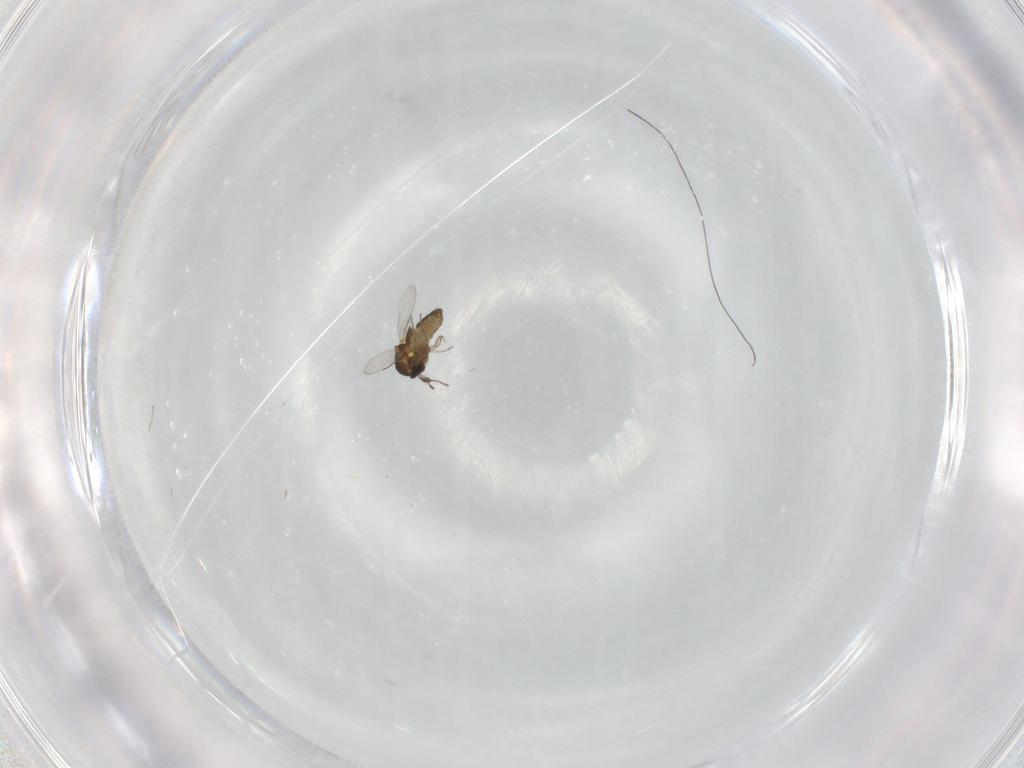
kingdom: Animalia
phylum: Arthropoda
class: Insecta
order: Diptera
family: Ceratopogonidae
